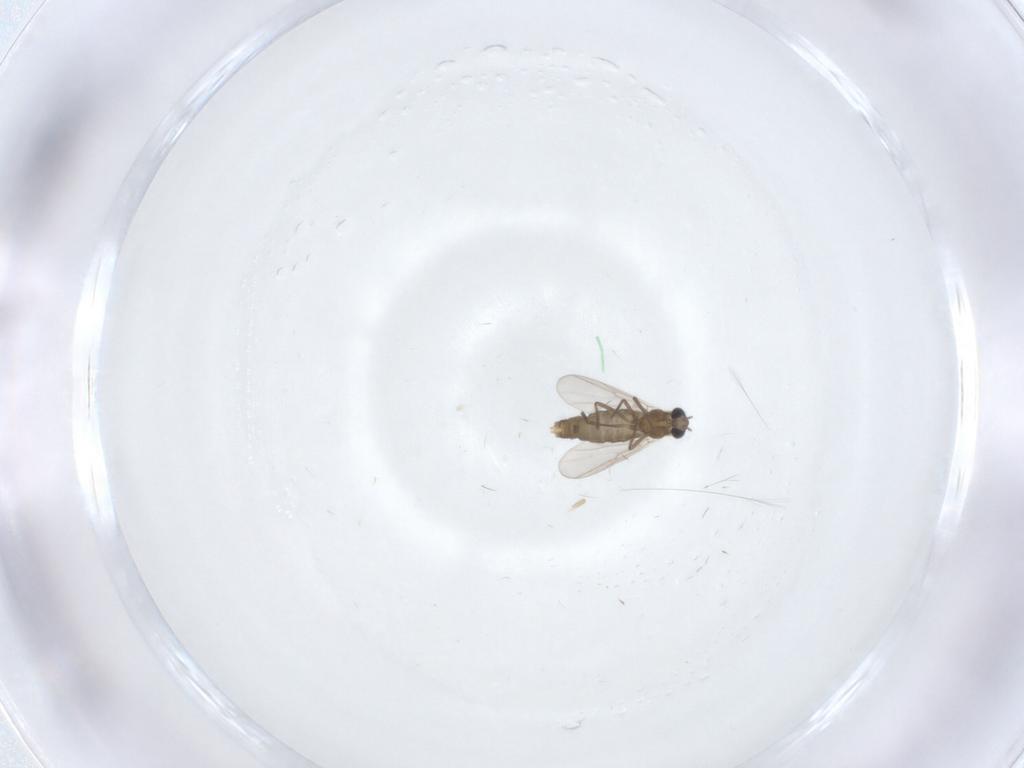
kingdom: Animalia
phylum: Arthropoda
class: Insecta
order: Diptera
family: Chironomidae
